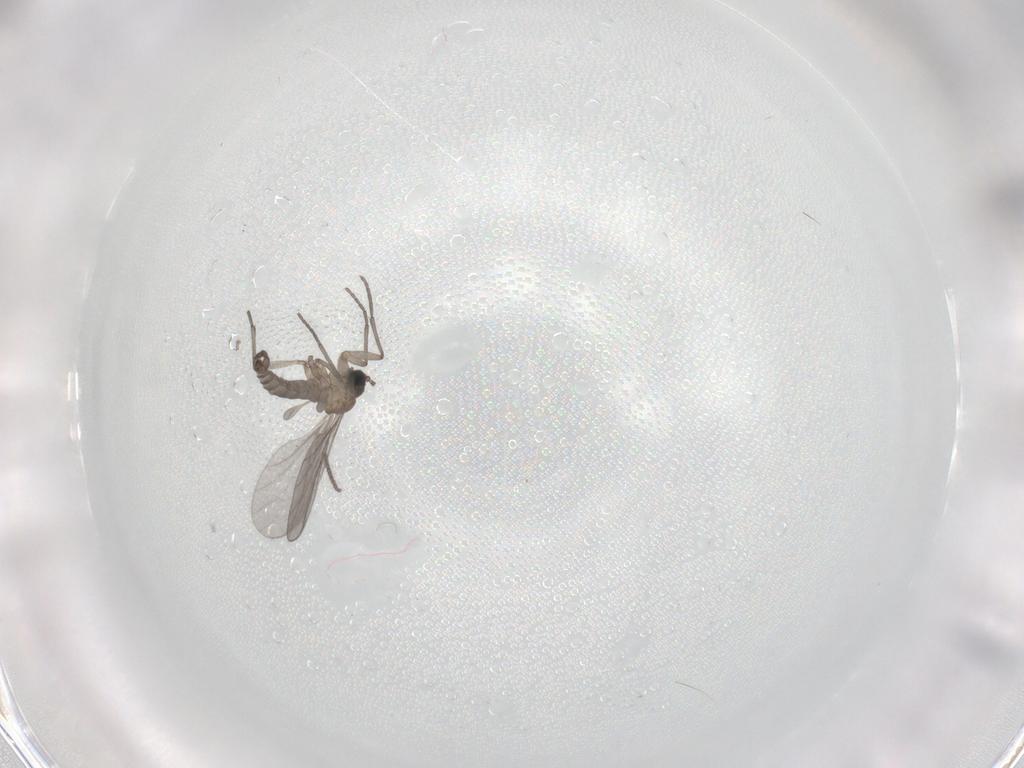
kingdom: Animalia
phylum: Arthropoda
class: Insecta
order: Diptera
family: Sciaridae
